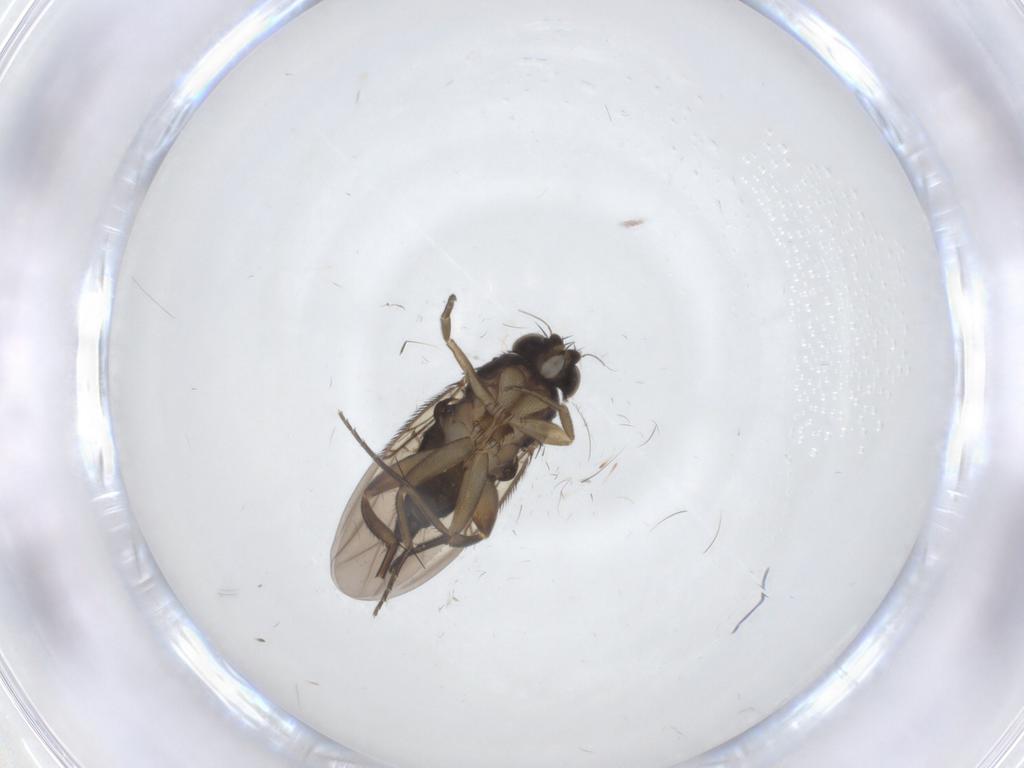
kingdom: Animalia
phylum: Arthropoda
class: Insecta
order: Diptera
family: Phoridae
